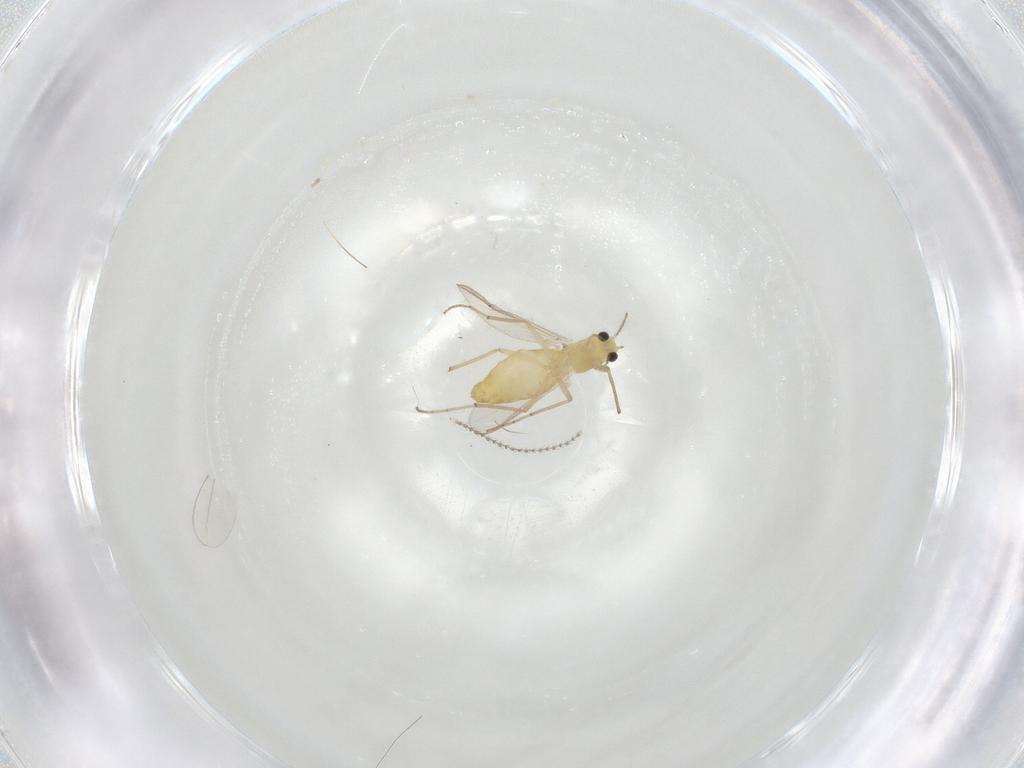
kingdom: Animalia
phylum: Arthropoda
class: Insecta
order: Diptera
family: Chironomidae
